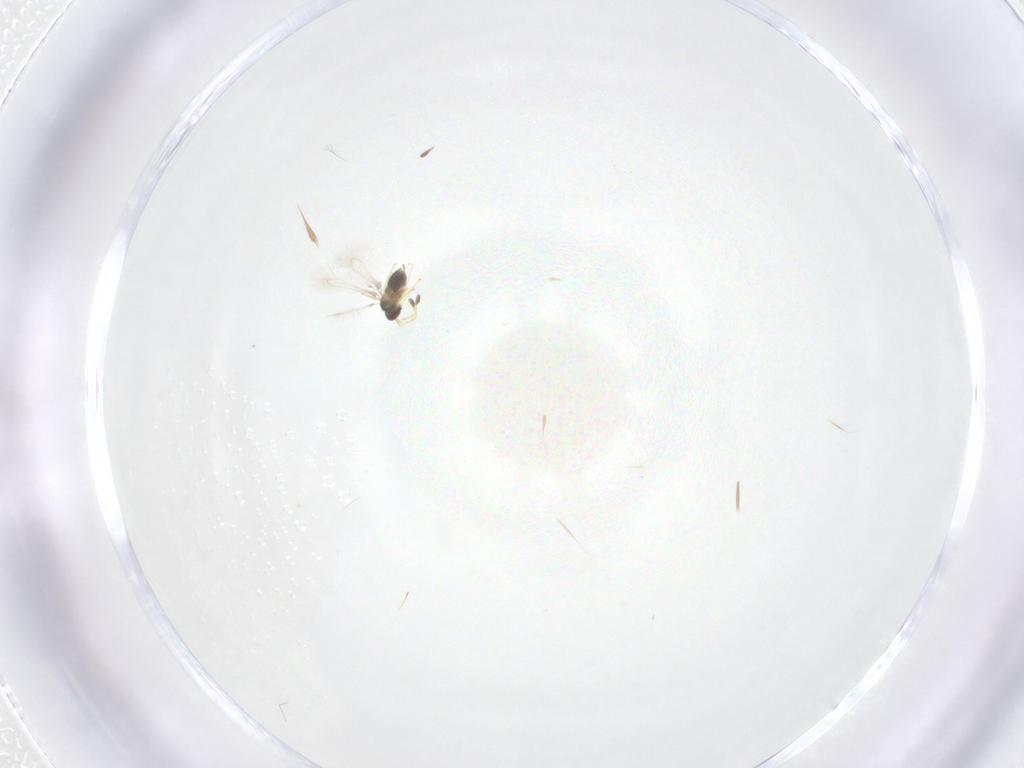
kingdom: Animalia
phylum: Arthropoda
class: Insecta
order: Hymenoptera
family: Mymaridae
